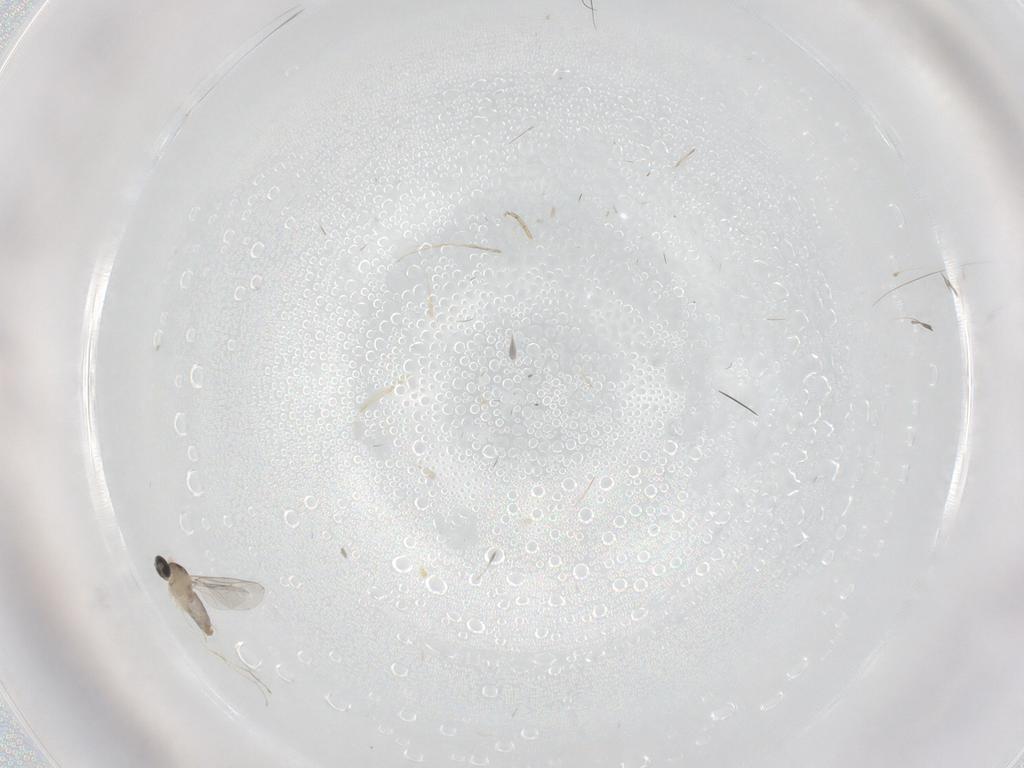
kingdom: Animalia
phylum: Arthropoda
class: Insecta
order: Diptera
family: Cecidomyiidae
